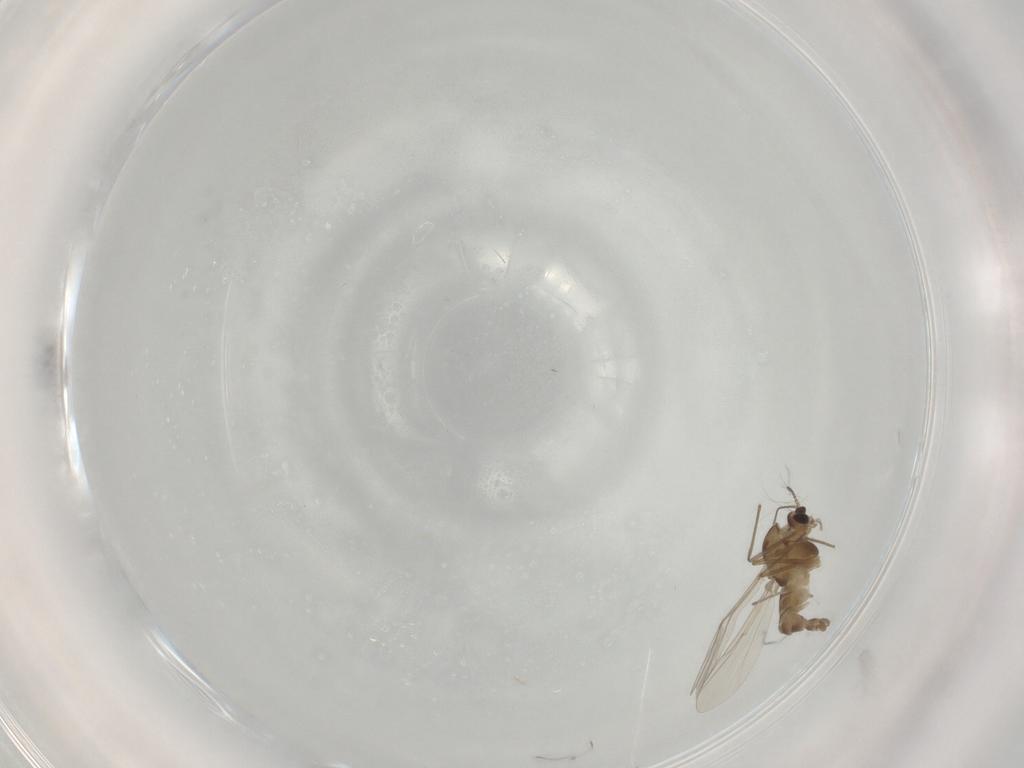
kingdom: Animalia
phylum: Arthropoda
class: Insecta
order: Diptera
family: Chironomidae
